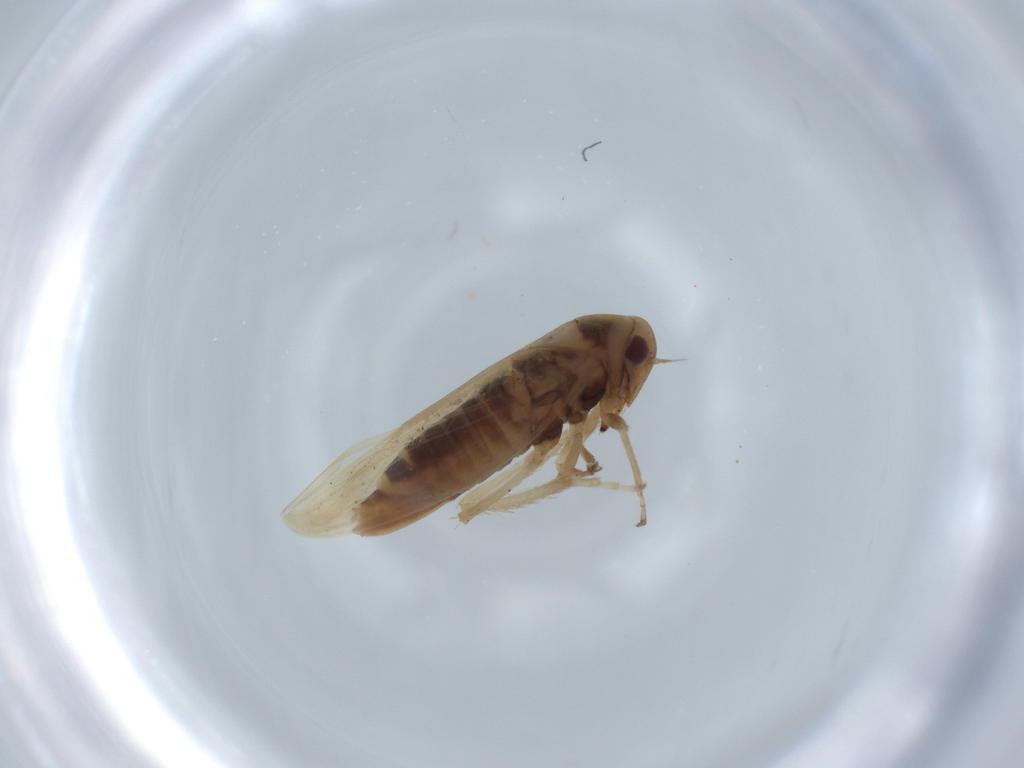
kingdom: Animalia
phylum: Arthropoda
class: Insecta
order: Hemiptera
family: Cicadellidae
